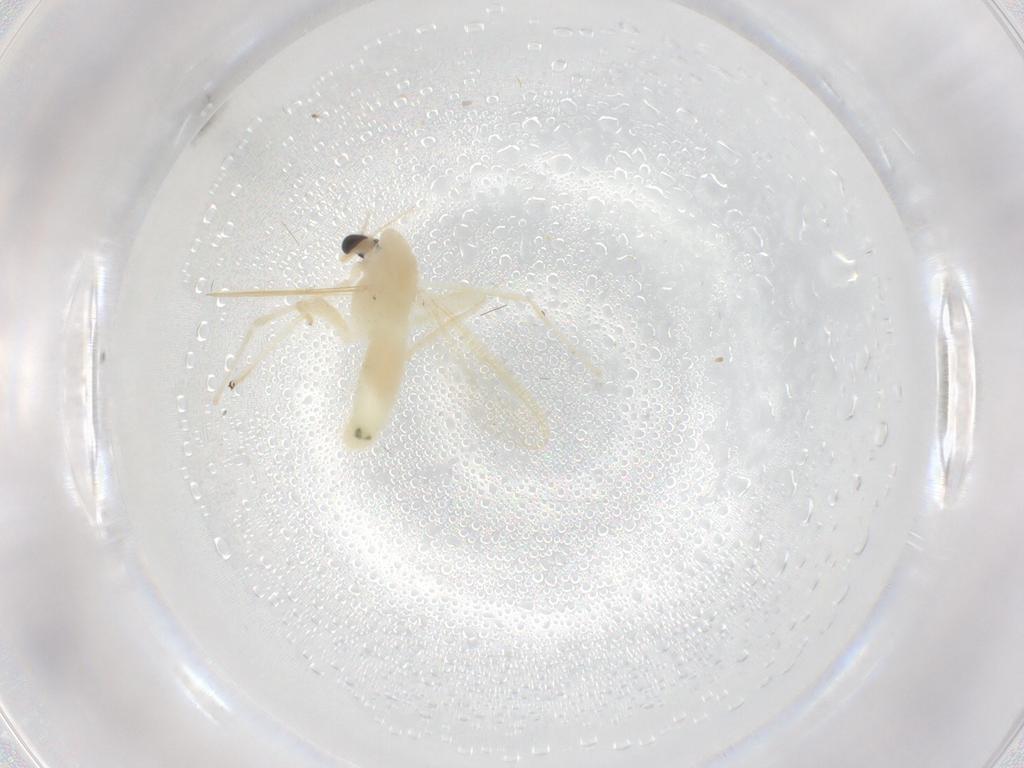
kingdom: Animalia
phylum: Arthropoda
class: Insecta
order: Diptera
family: Chironomidae
